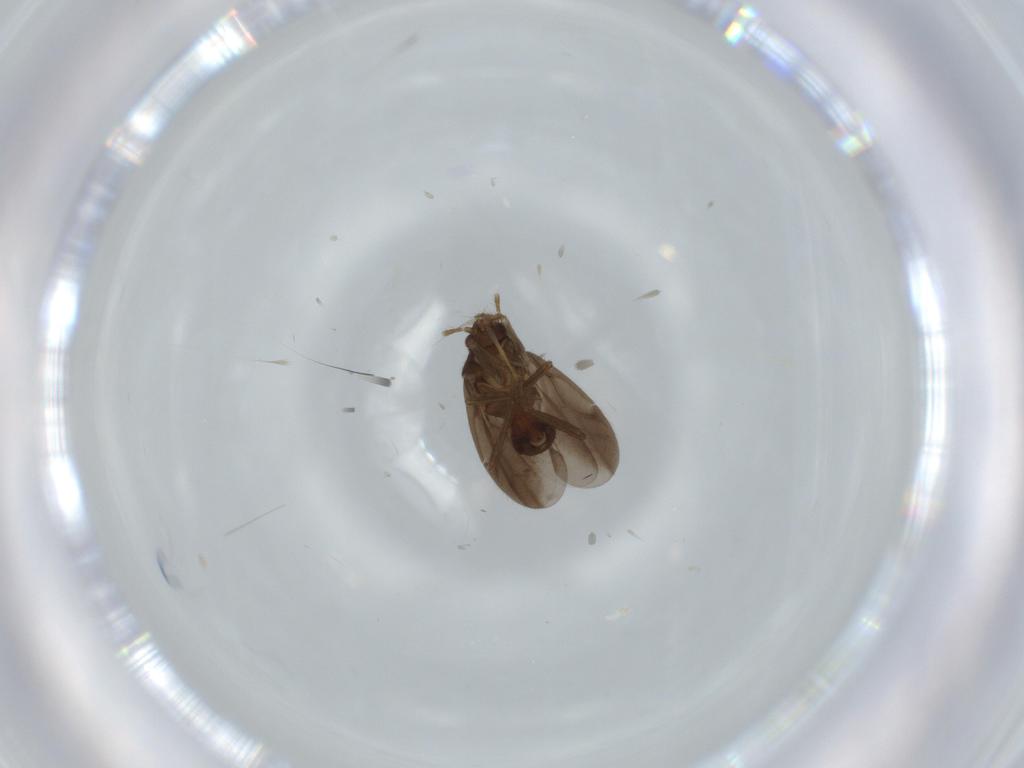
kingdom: Animalia
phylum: Arthropoda
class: Insecta
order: Hemiptera
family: Ceratocombidae
